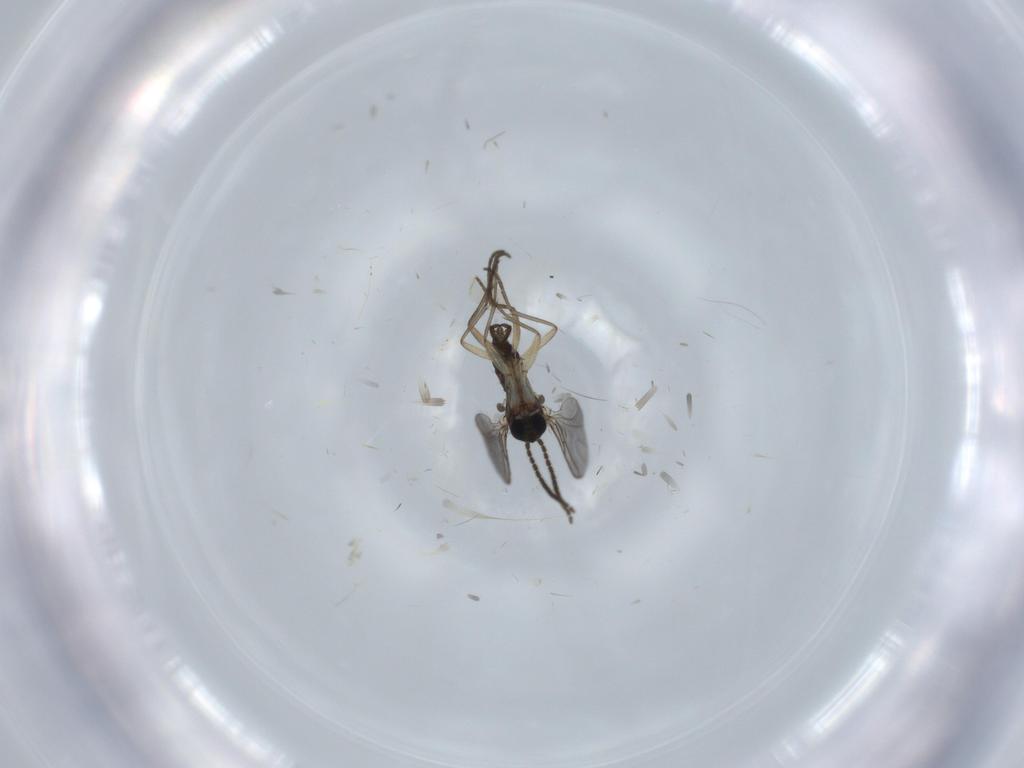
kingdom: Animalia
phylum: Arthropoda
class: Insecta
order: Diptera
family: Sciaridae
